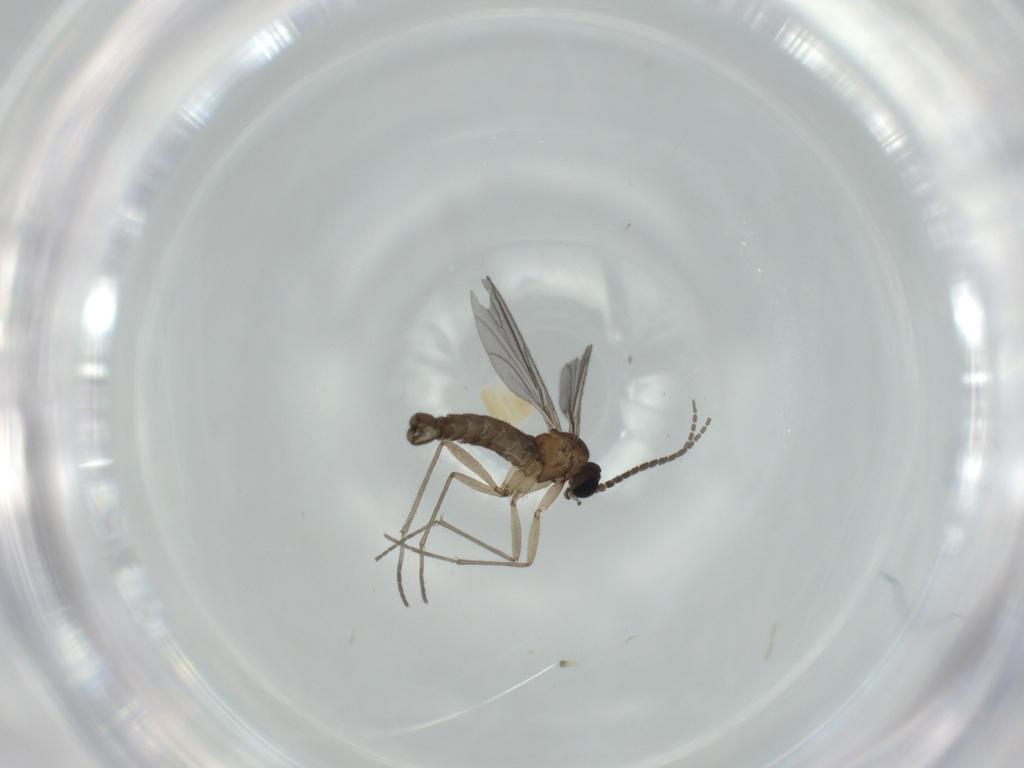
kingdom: Animalia
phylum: Arthropoda
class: Insecta
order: Diptera
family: Sciaridae
